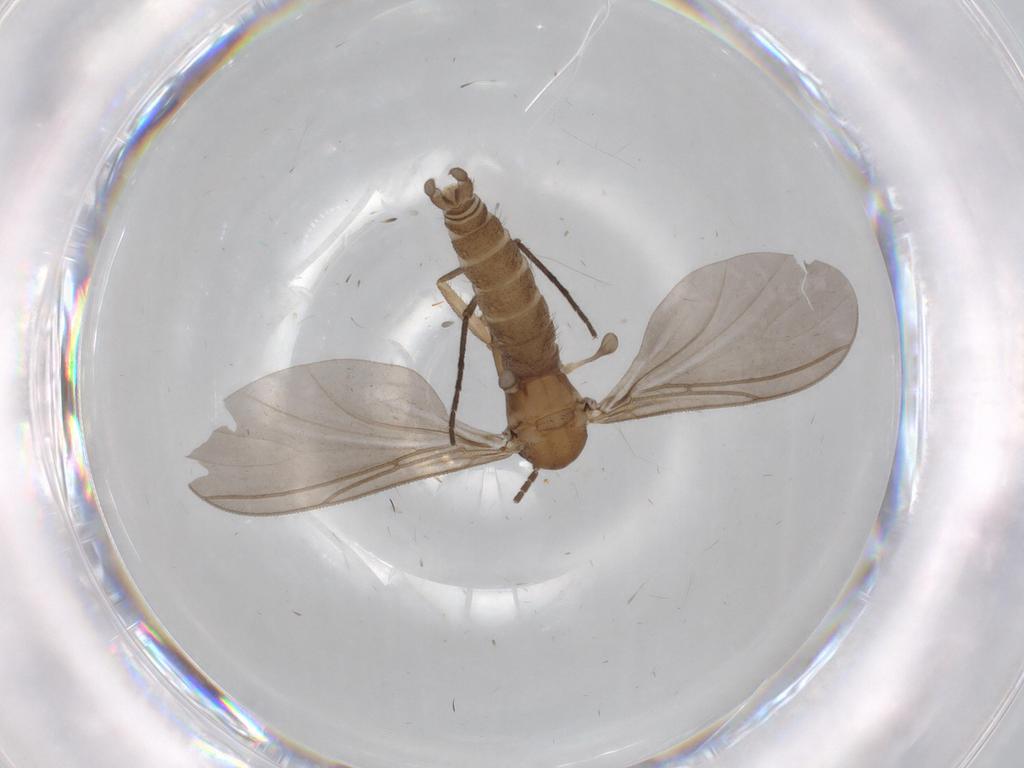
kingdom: Animalia
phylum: Arthropoda
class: Insecta
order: Diptera
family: Sciaridae
